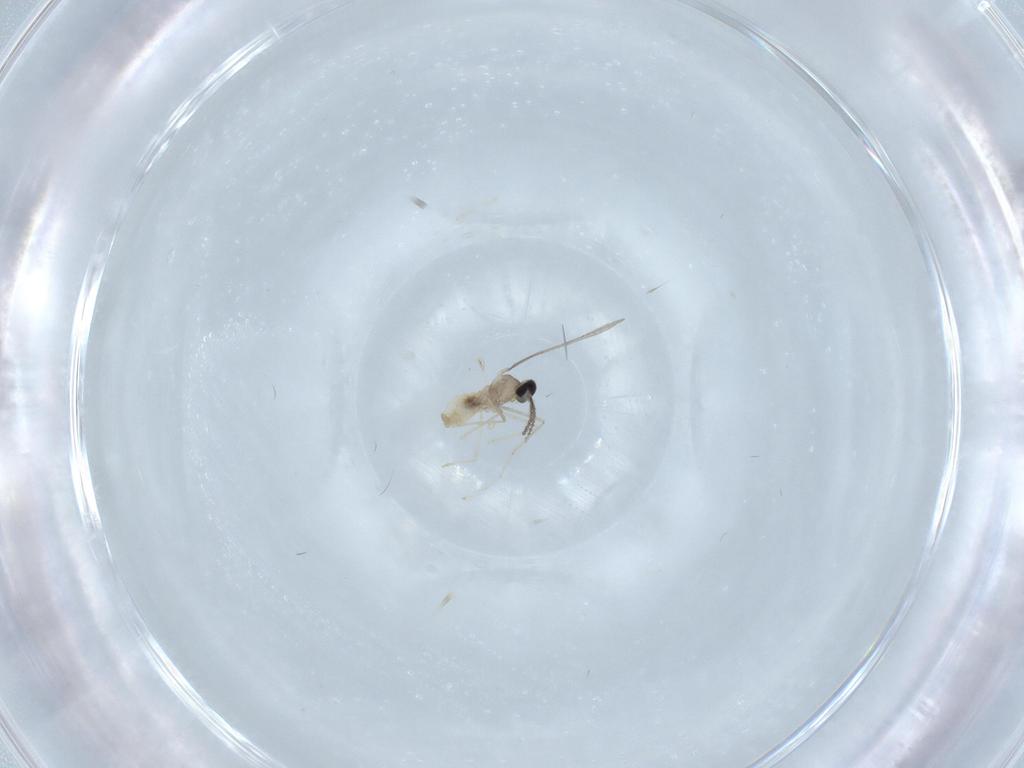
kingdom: Animalia
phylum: Arthropoda
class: Insecta
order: Diptera
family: Cecidomyiidae
